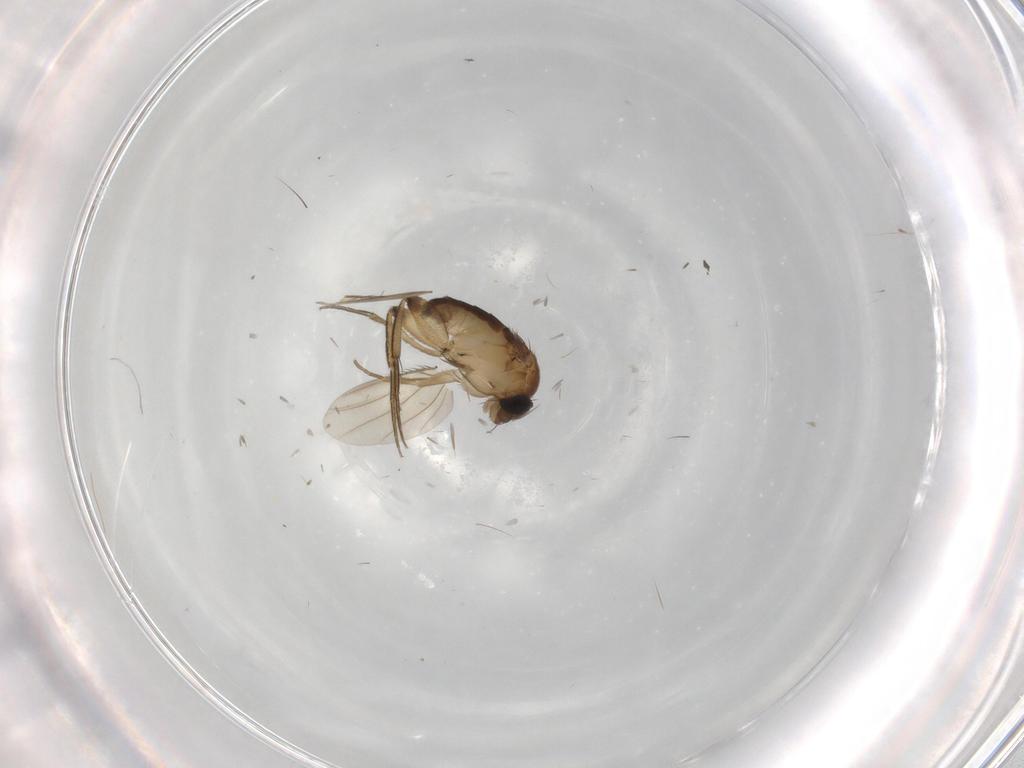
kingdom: Animalia
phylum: Arthropoda
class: Insecta
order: Diptera
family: Phoridae
